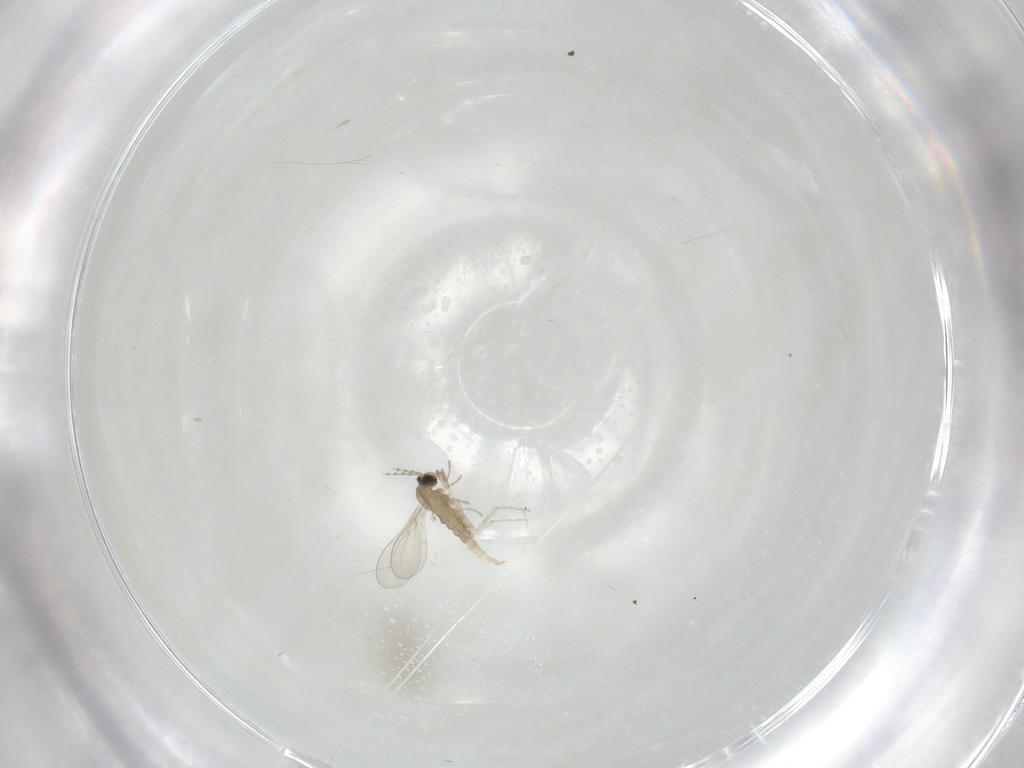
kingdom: Animalia
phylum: Arthropoda
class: Insecta
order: Diptera
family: Cecidomyiidae
